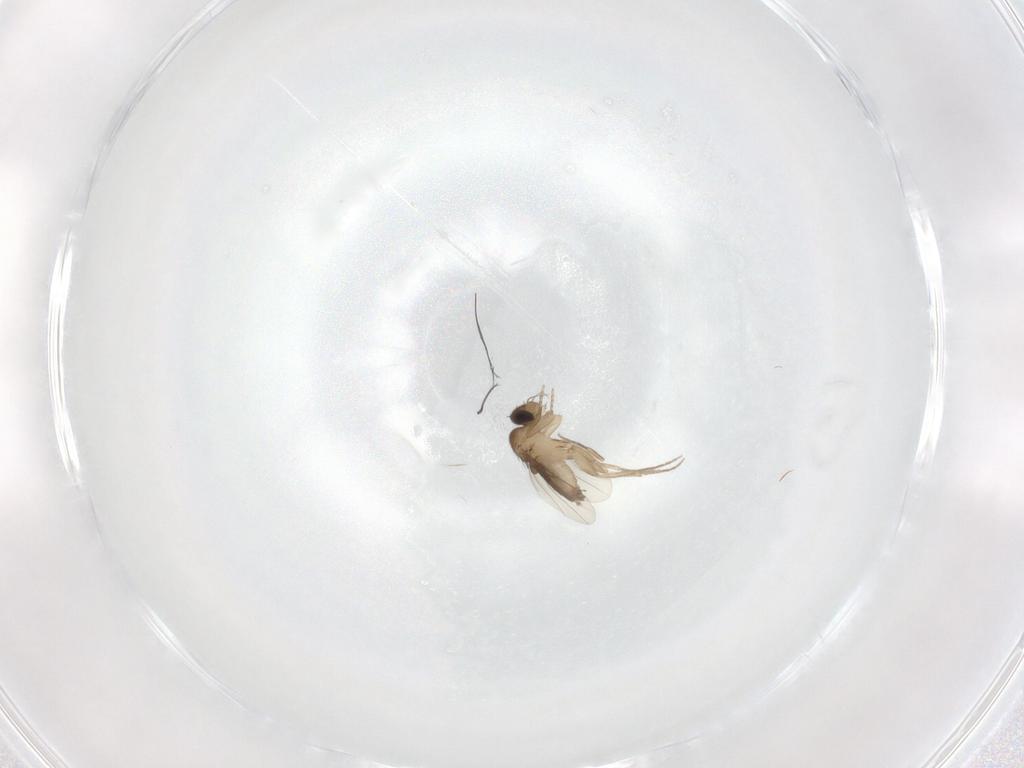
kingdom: Animalia
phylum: Arthropoda
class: Insecta
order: Diptera
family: Phoridae
